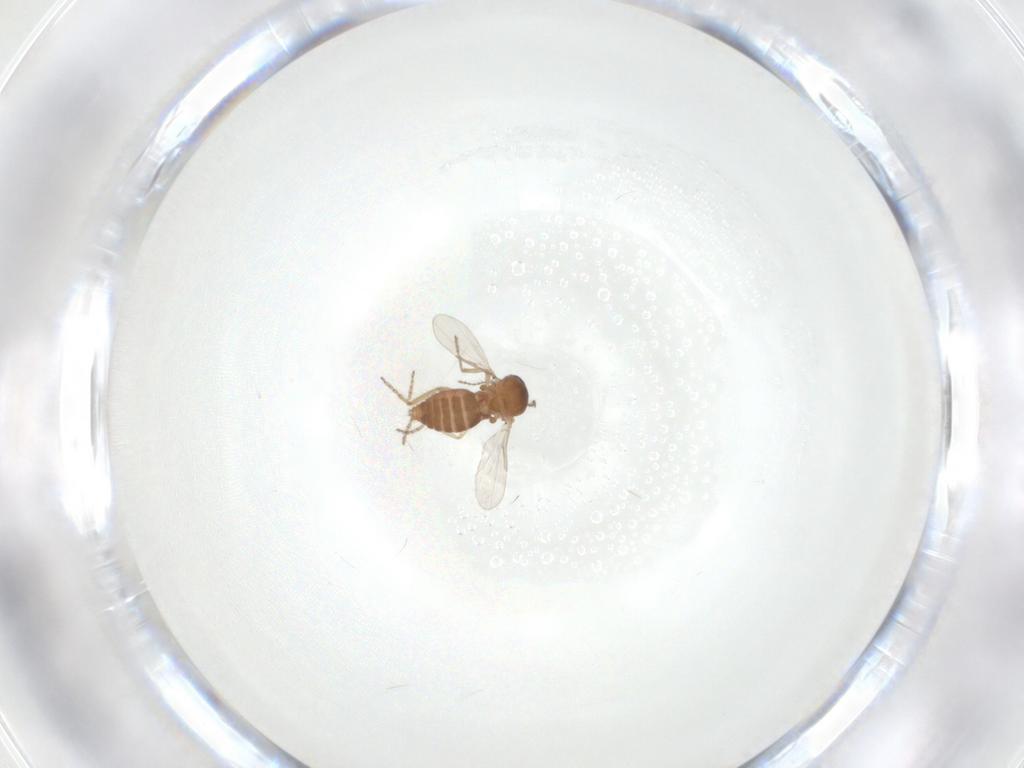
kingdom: Animalia
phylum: Arthropoda
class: Insecta
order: Diptera
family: Ceratopogonidae
